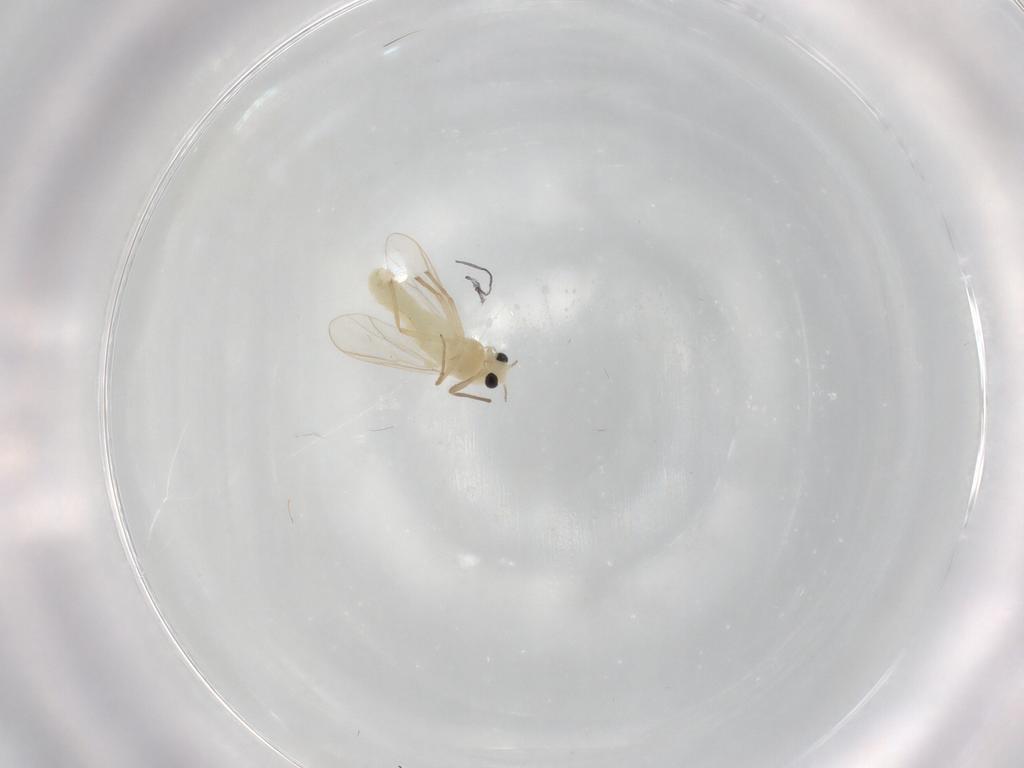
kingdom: Animalia
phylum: Arthropoda
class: Insecta
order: Diptera
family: Chironomidae
